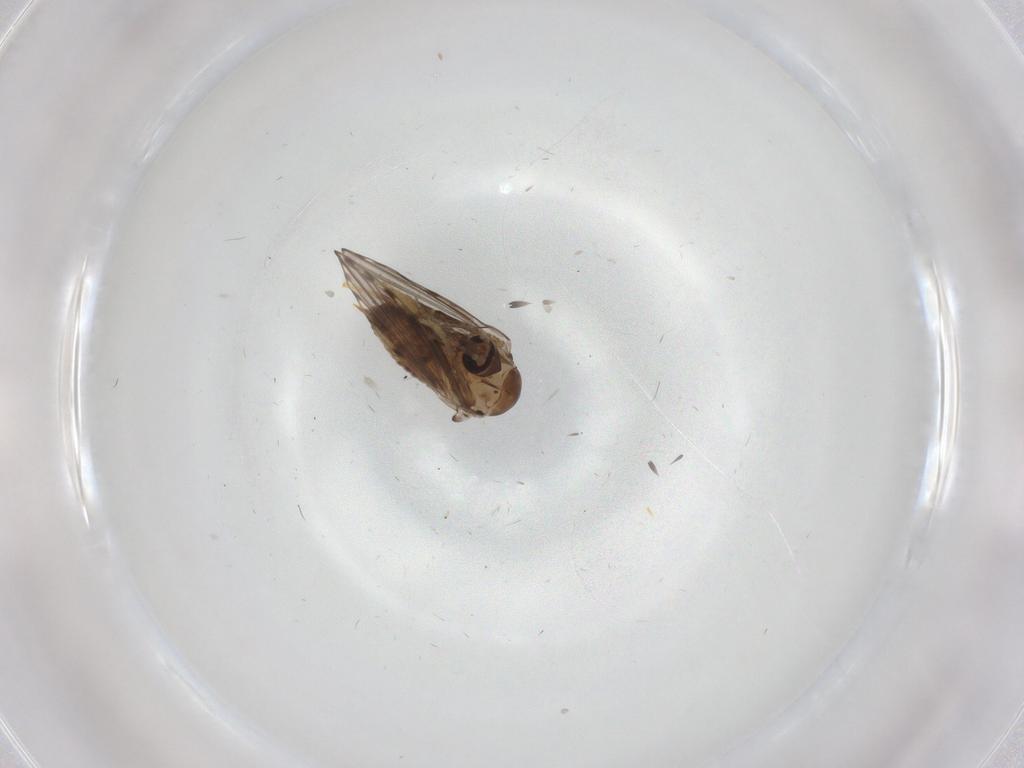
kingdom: Animalia
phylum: Arthropoda
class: Insecta
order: Diptera
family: Psychodidae
